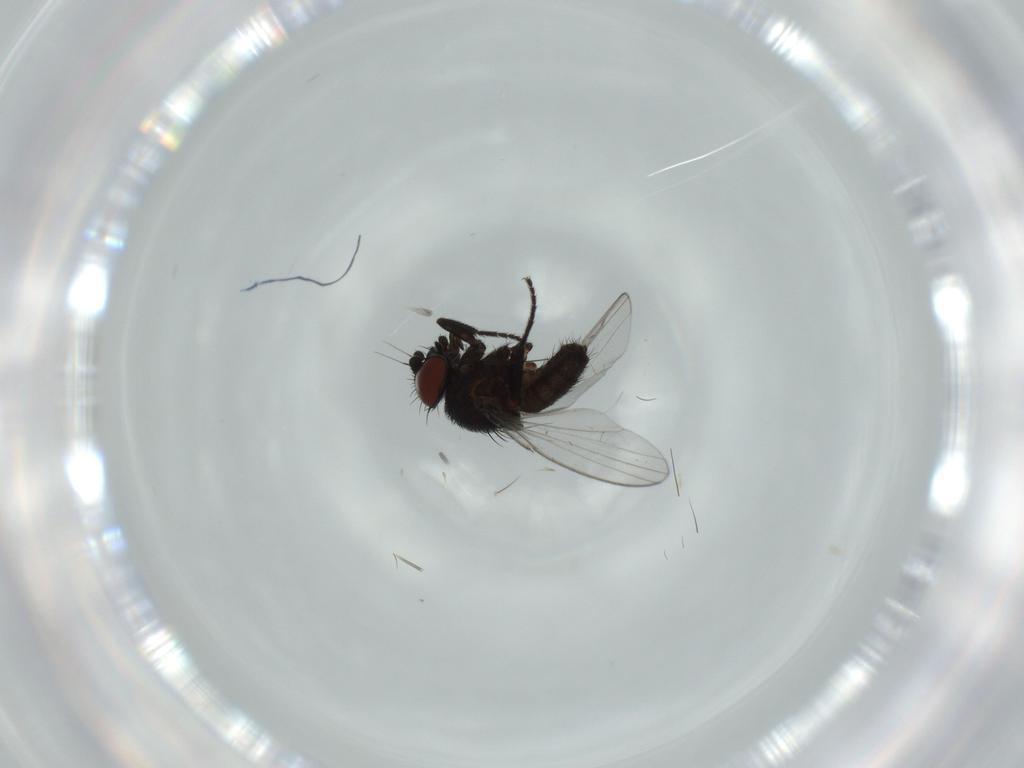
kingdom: Animalia
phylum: Arthropoda
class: Insecta
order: Diptera
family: Milichiidae
